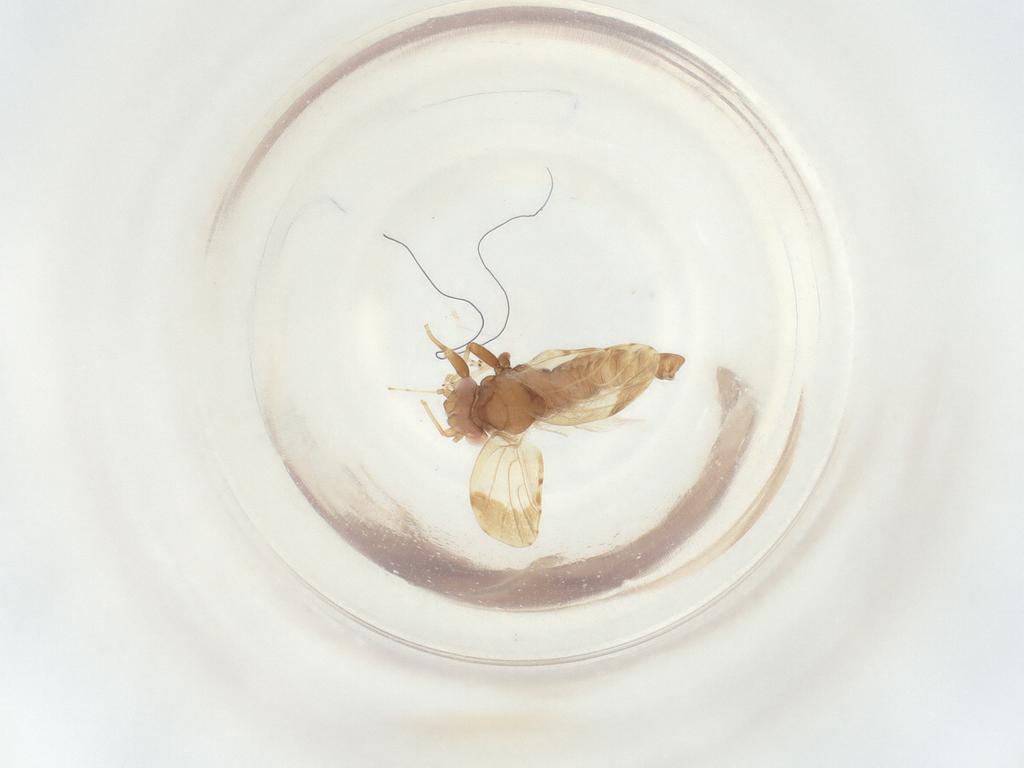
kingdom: Animalia
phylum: Arthropoda
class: Insecta
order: Hemiptera
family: Psyllidae
